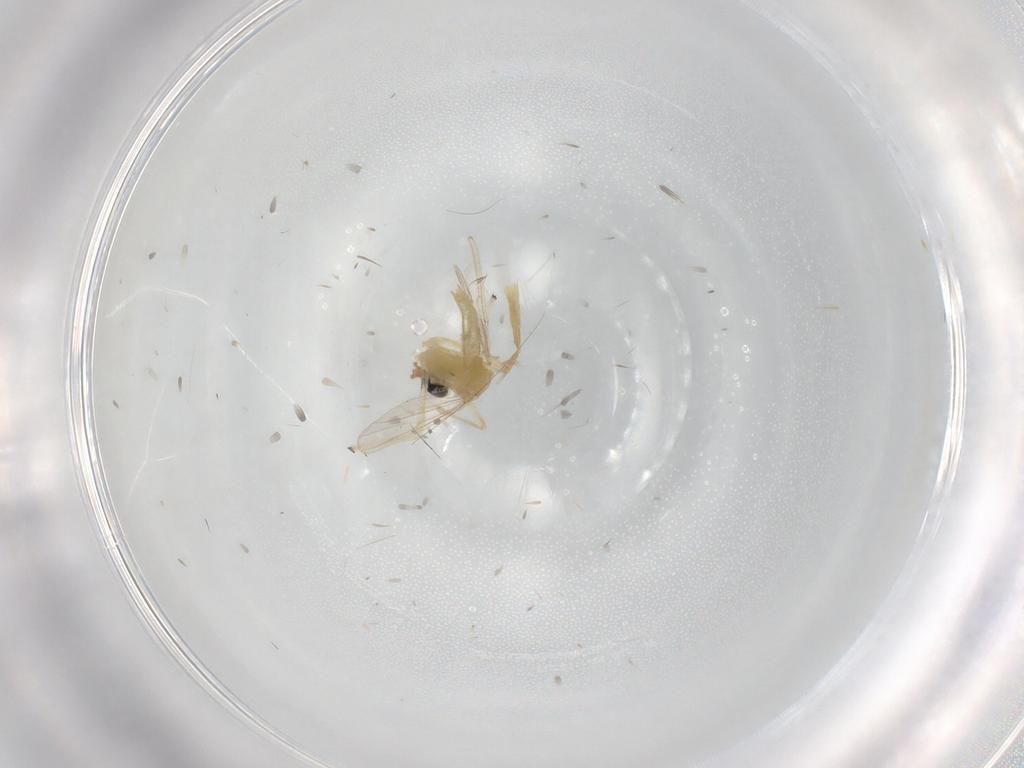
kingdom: Animalia
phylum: Arthropoda
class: Insecta
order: Diptera
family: Chironomidae
